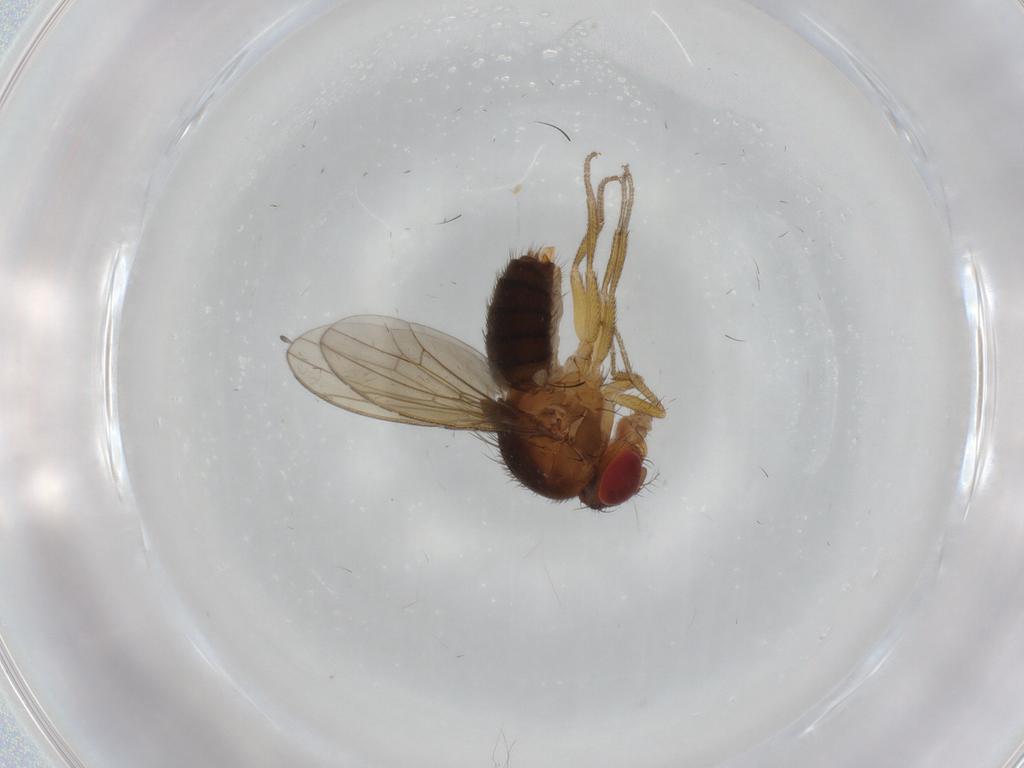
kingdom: Animalia
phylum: Arthropoda
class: Insecta
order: Diptera
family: Drosophilidae
